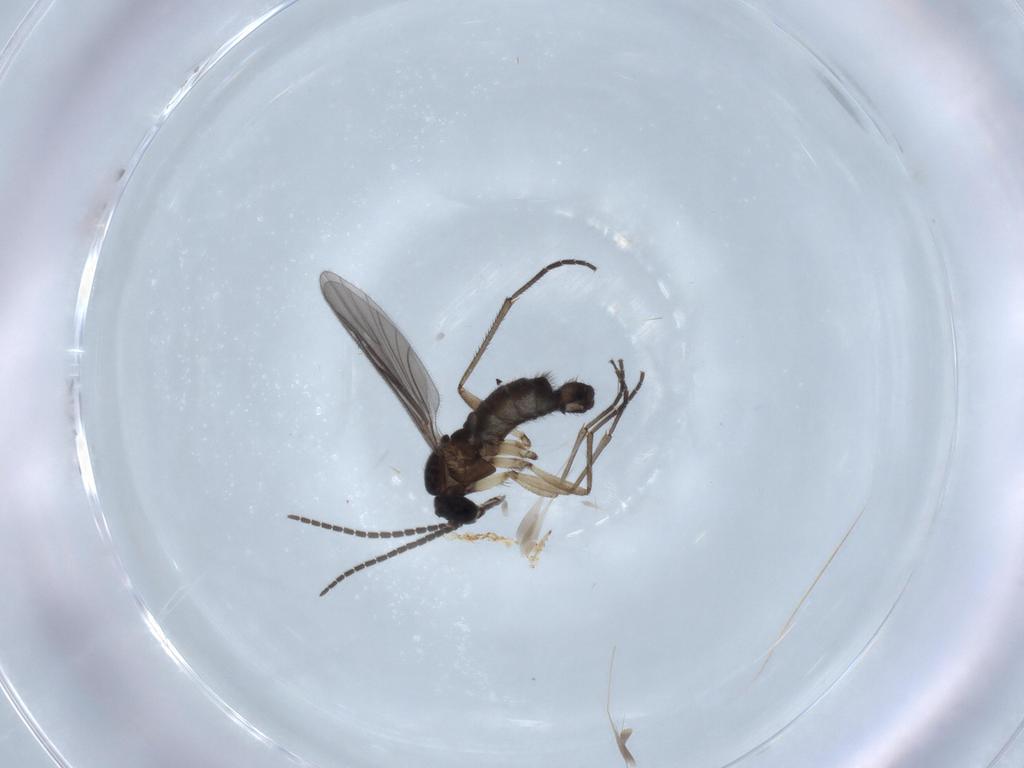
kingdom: Animalia
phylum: Arthropoda
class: Insecta
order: Diptera
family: Sciaridae
